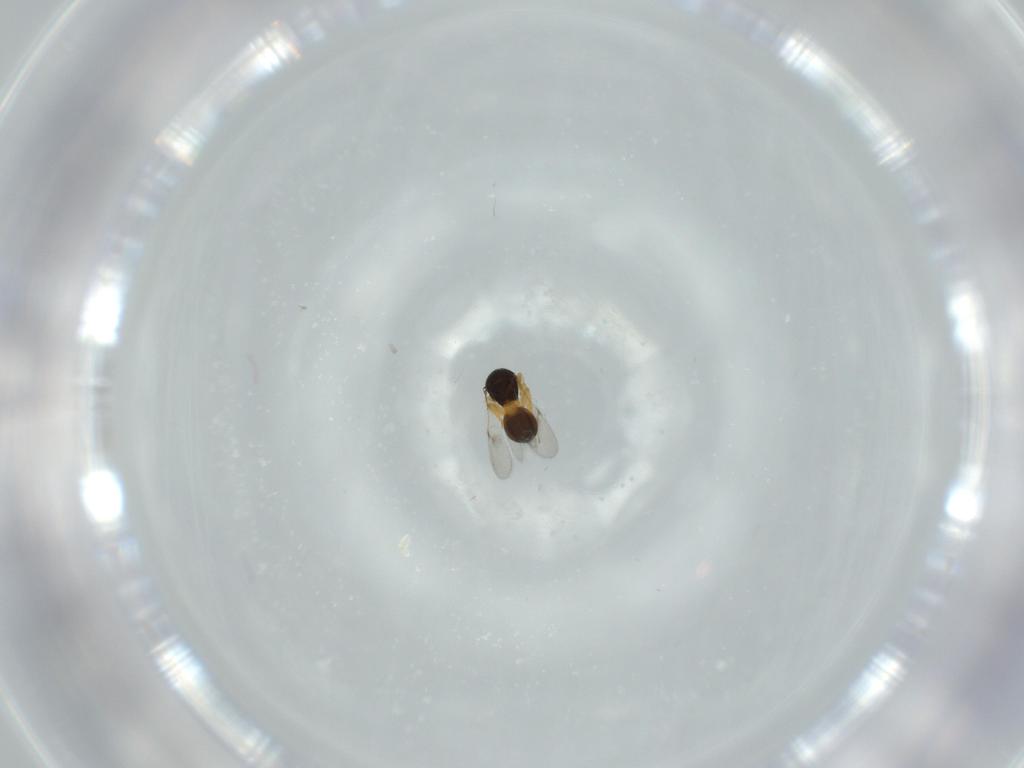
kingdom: Animalia
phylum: Arthropoda
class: Insecta
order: Hymenoptera
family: Scelionidae
